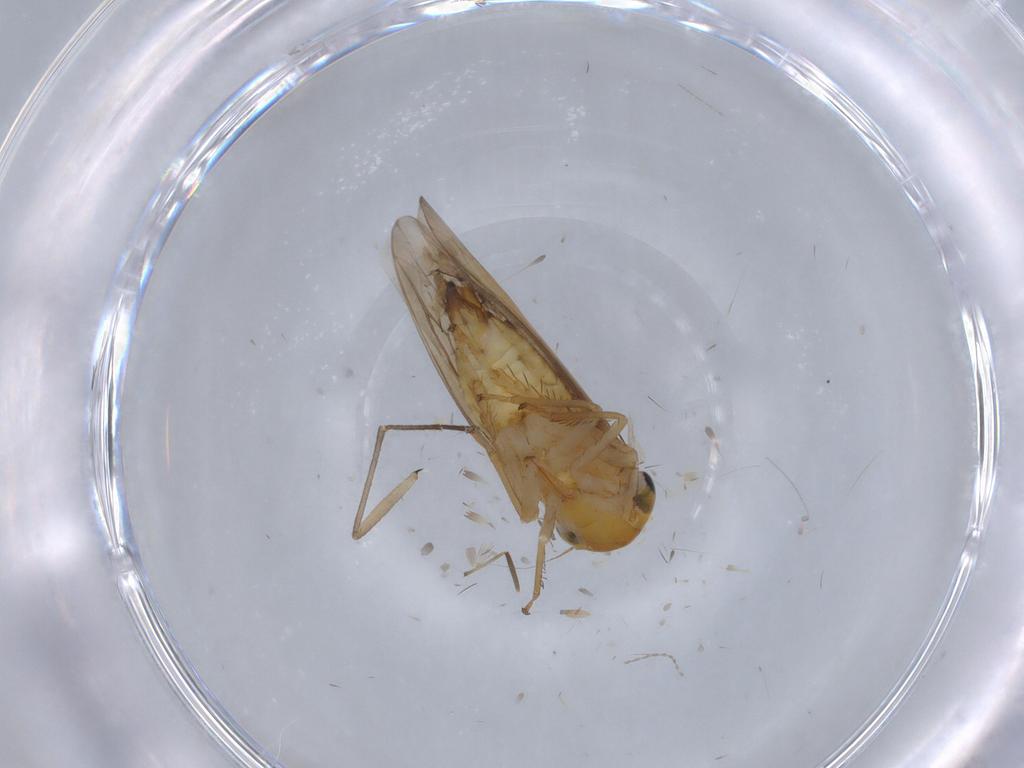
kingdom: Animalia
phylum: Arthropoda
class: Insecta
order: Hemiptera
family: Cicadellidae
